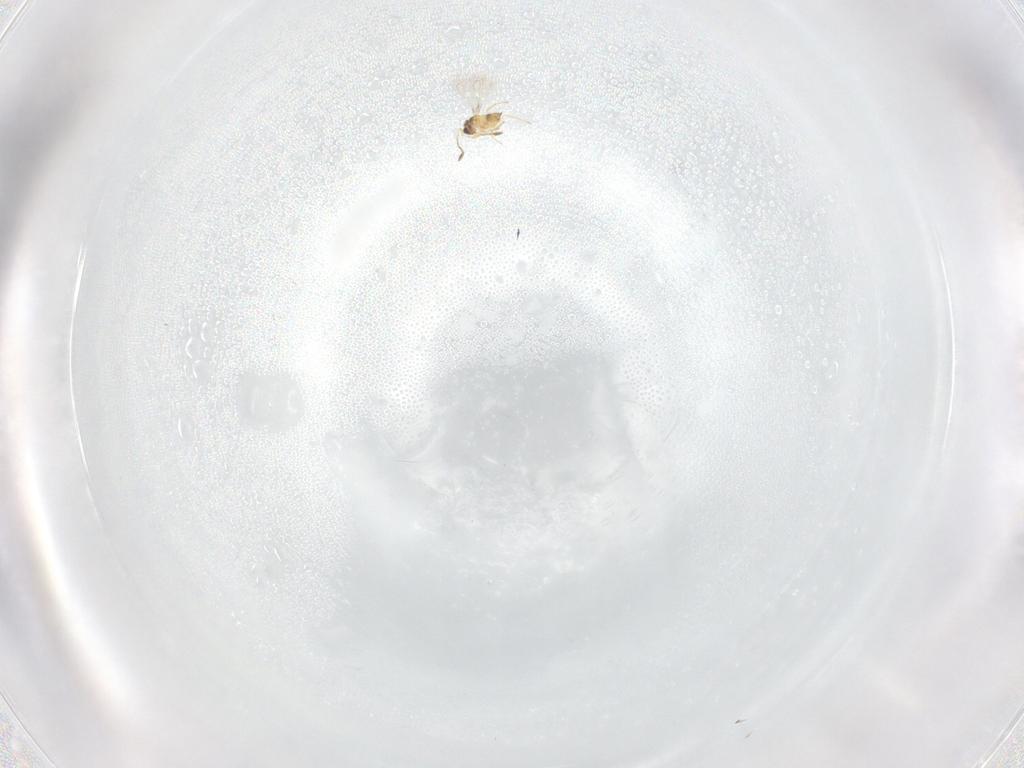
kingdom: Animalia
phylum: Arthropoda
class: Insecta
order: Hymenoptera
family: Mymaridae
